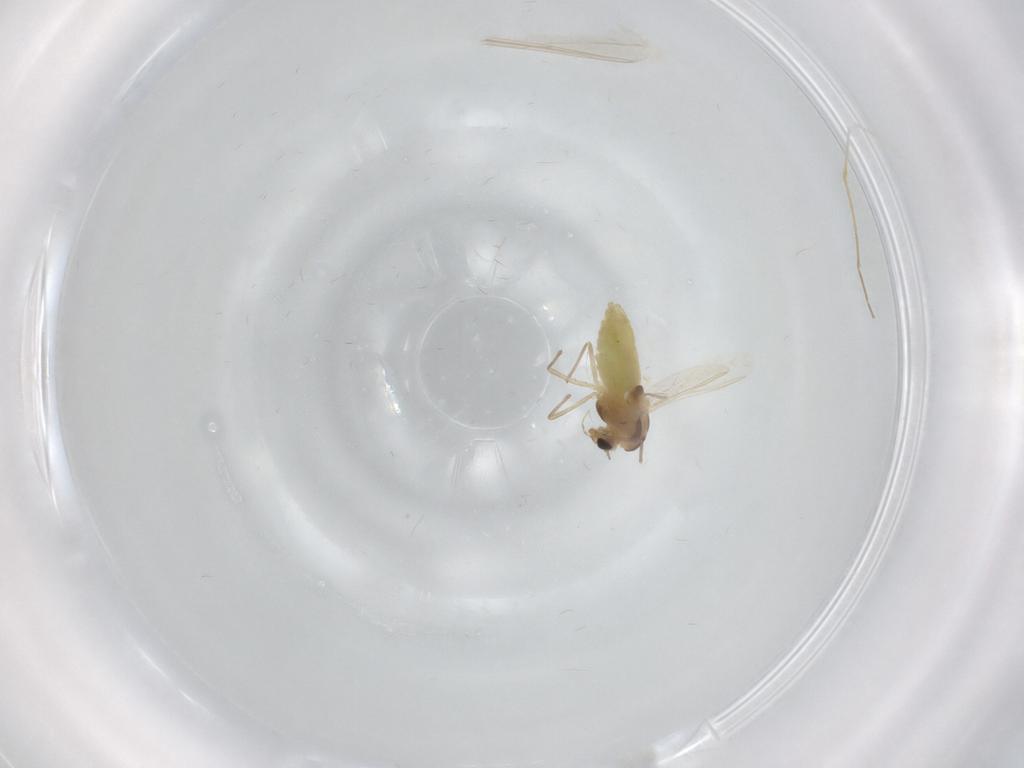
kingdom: Animalia
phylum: Arthropoda
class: Insecta
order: Diptera
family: Chironomidae
